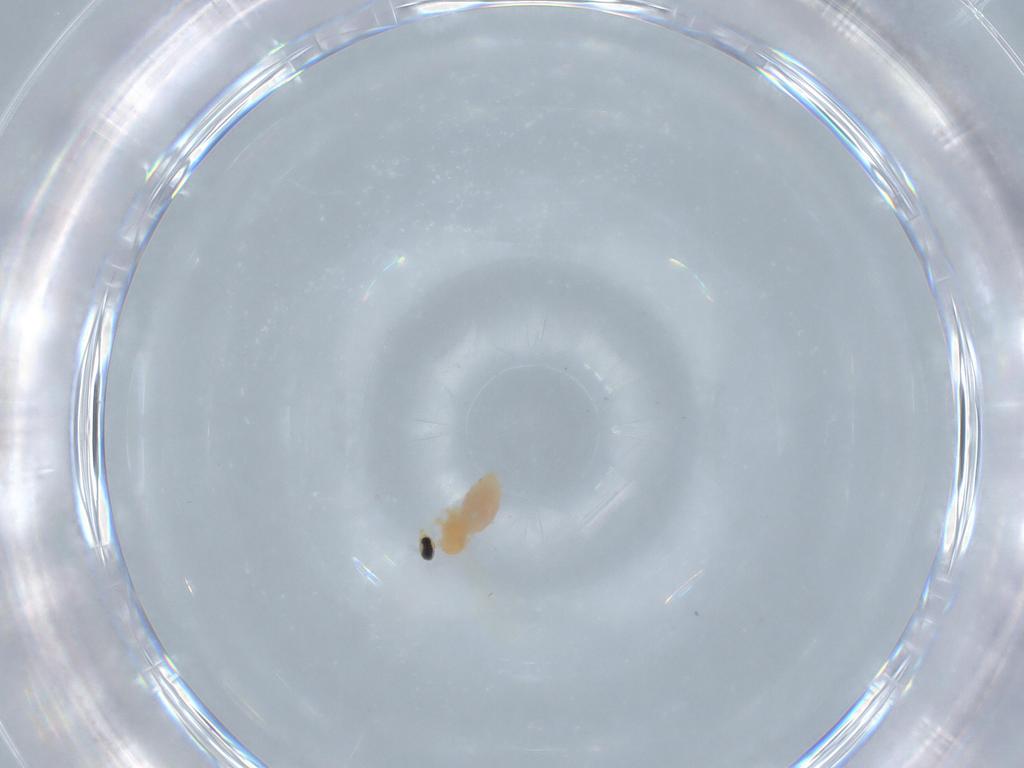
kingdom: Animalia
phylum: Arthropoda
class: Insecta
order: Diptera
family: Cecidomyiidae
